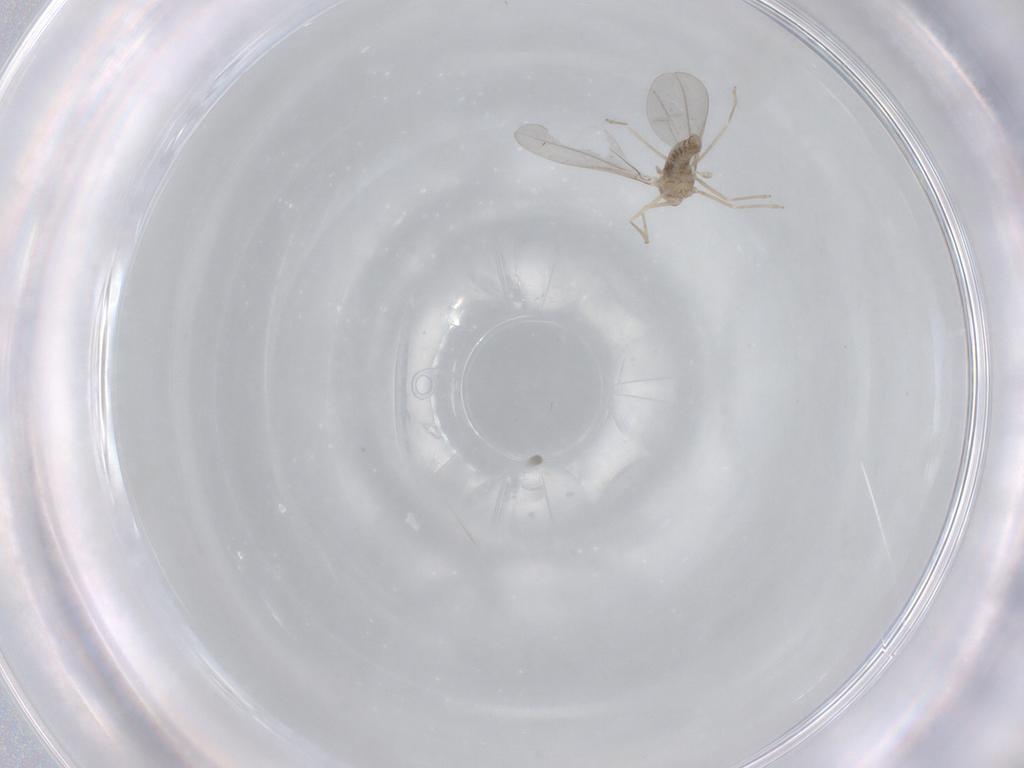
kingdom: Animalia
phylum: Arthropoda
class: Insecta
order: Diptera
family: Cecidomyiidae
